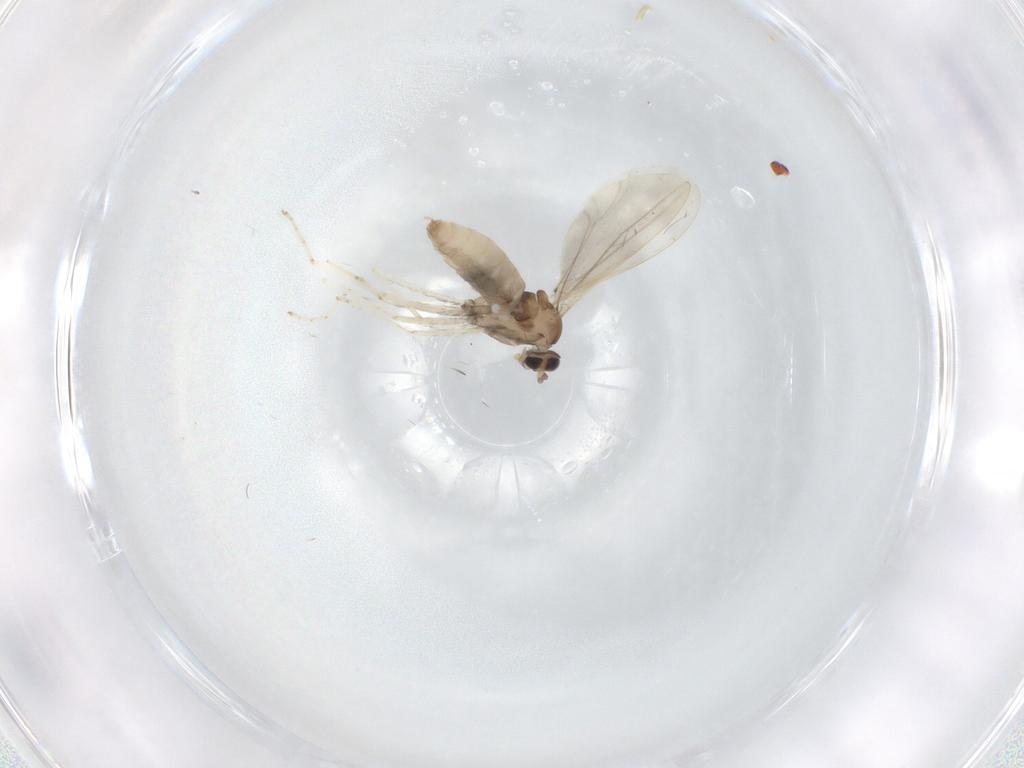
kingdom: Animalia
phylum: Arthropoda
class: Insecta
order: Diptera
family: Cecidomyiidae
